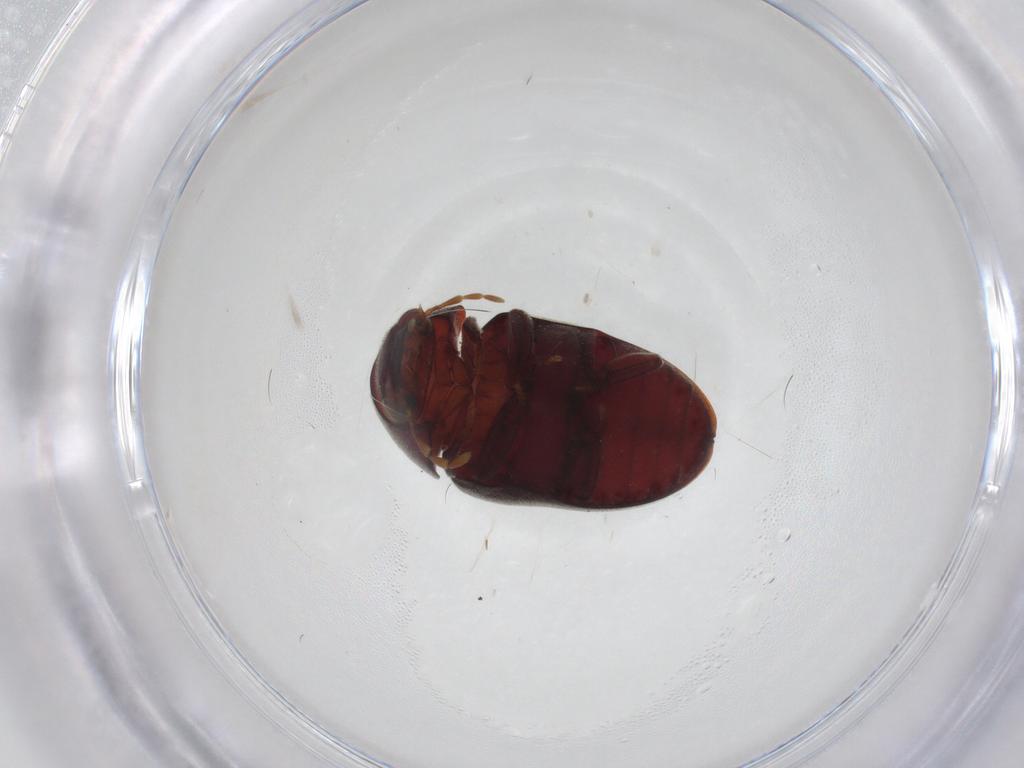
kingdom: Animalia
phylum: Arthropoda
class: Insecta
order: Coleoptera
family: Ptinidae
